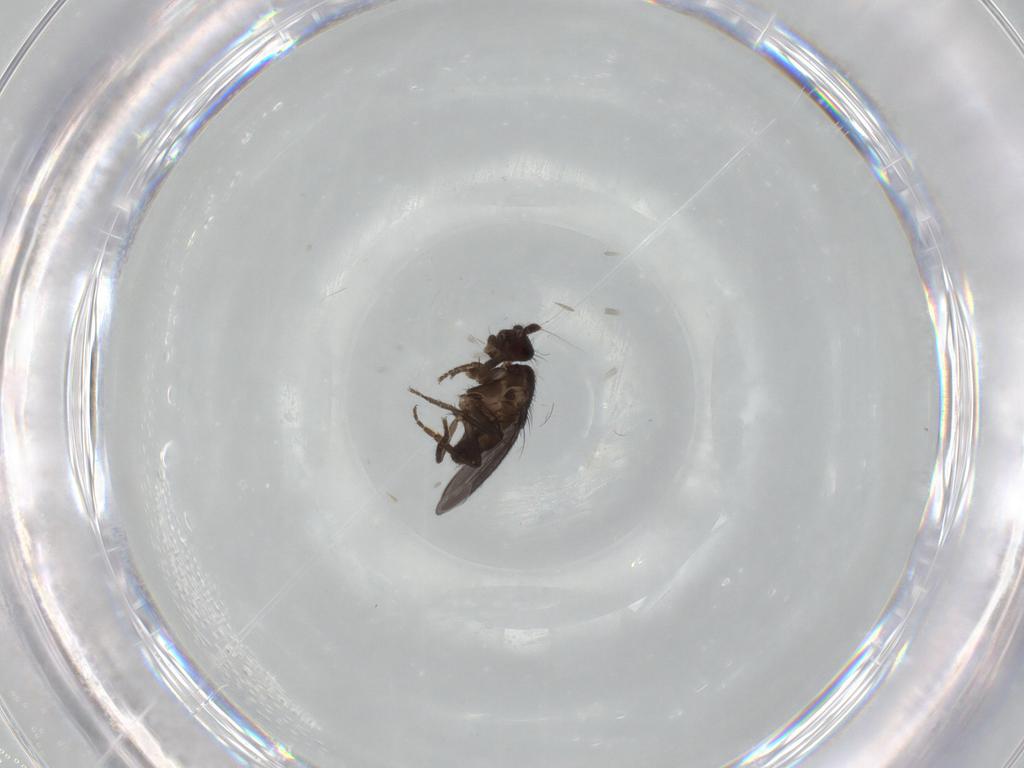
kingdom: Animalia
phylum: Arthropoda
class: Insecta
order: Diptera
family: Sphaeroceridae
